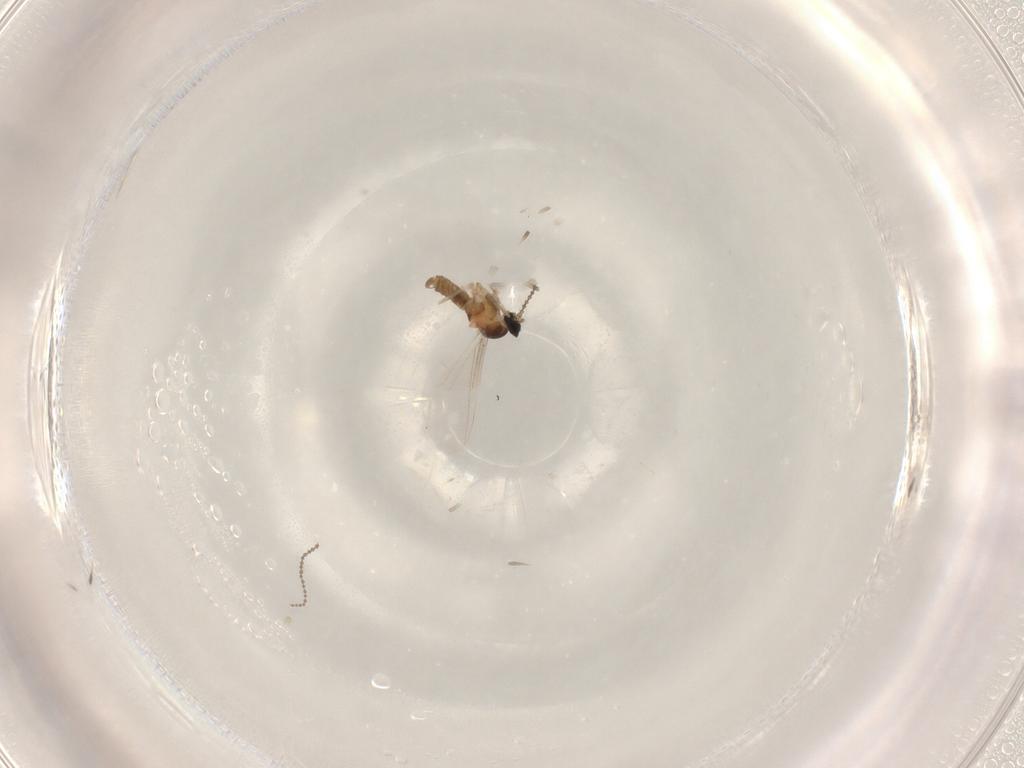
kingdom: Animalia
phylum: Arthropoda
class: Insecta
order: Diptera
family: Cecidomyiidae
